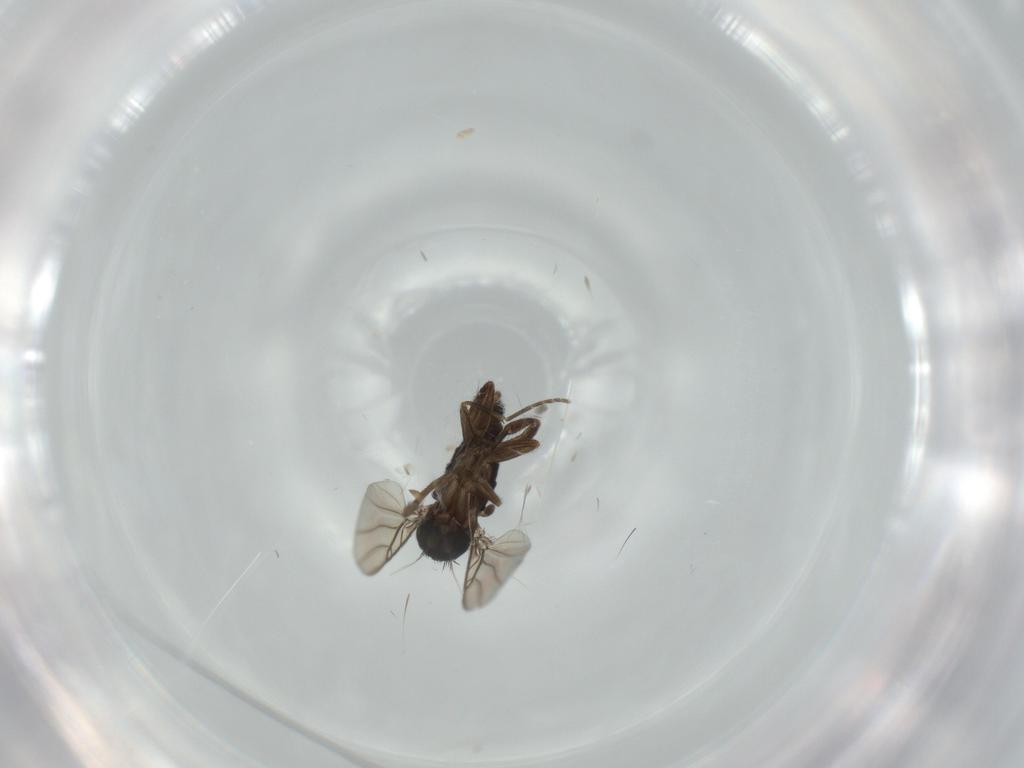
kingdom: Animalia
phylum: Arthropoda
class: Insecta
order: Diptera
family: Phoridae
